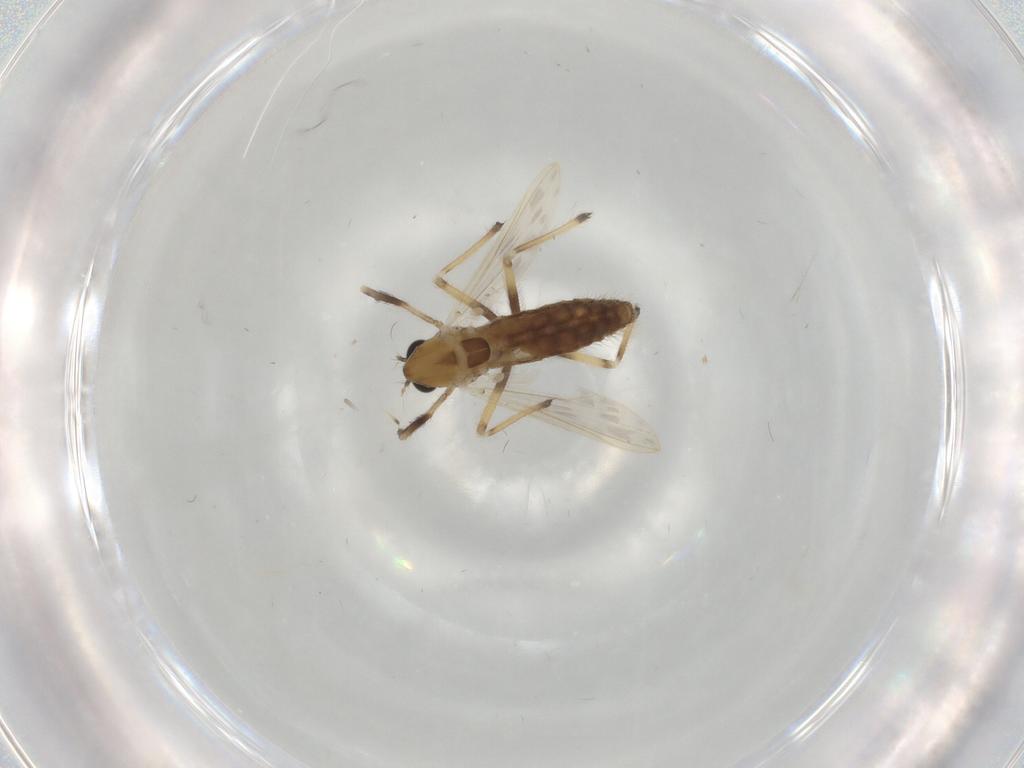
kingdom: Animalia
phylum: Arthropoda
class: Insecta
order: Diptera
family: Chironomidae
